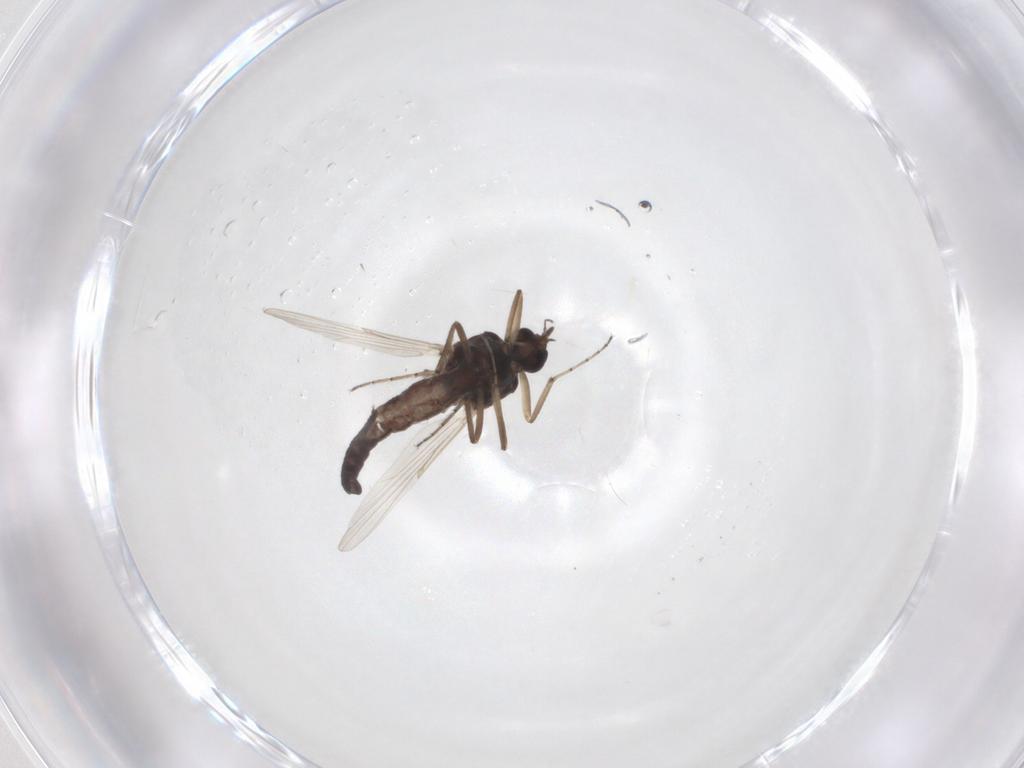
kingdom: Animalia
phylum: Arthropoda
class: Insecta
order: Diptera
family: Ceratopogonidae
